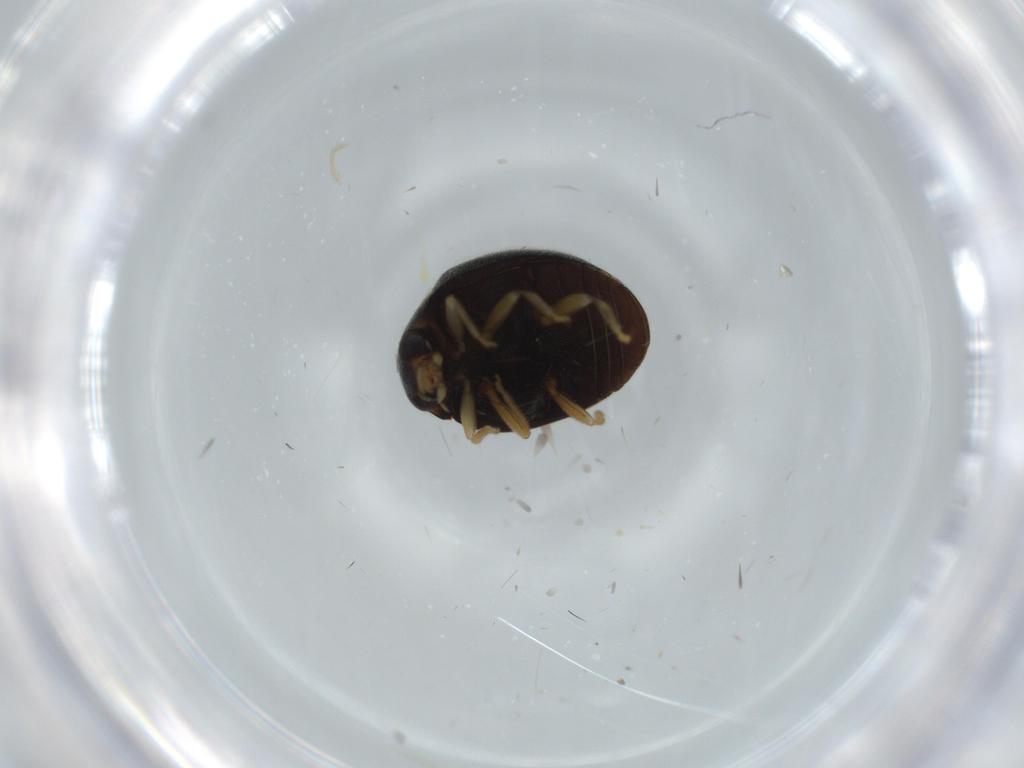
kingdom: Animalia
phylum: Arthropoda
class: Insecta
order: Coleoptera
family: Coccinellidae
